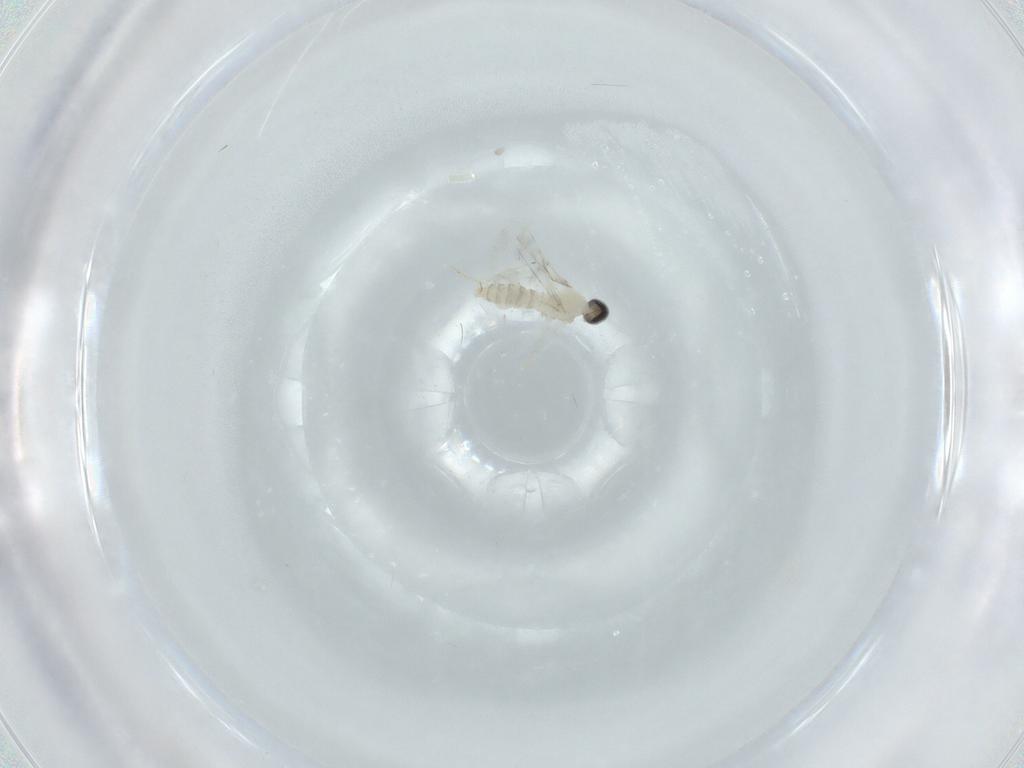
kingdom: Animalia
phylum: Arthropoda
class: Insecta
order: Diptera
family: Cecidomyiidae
